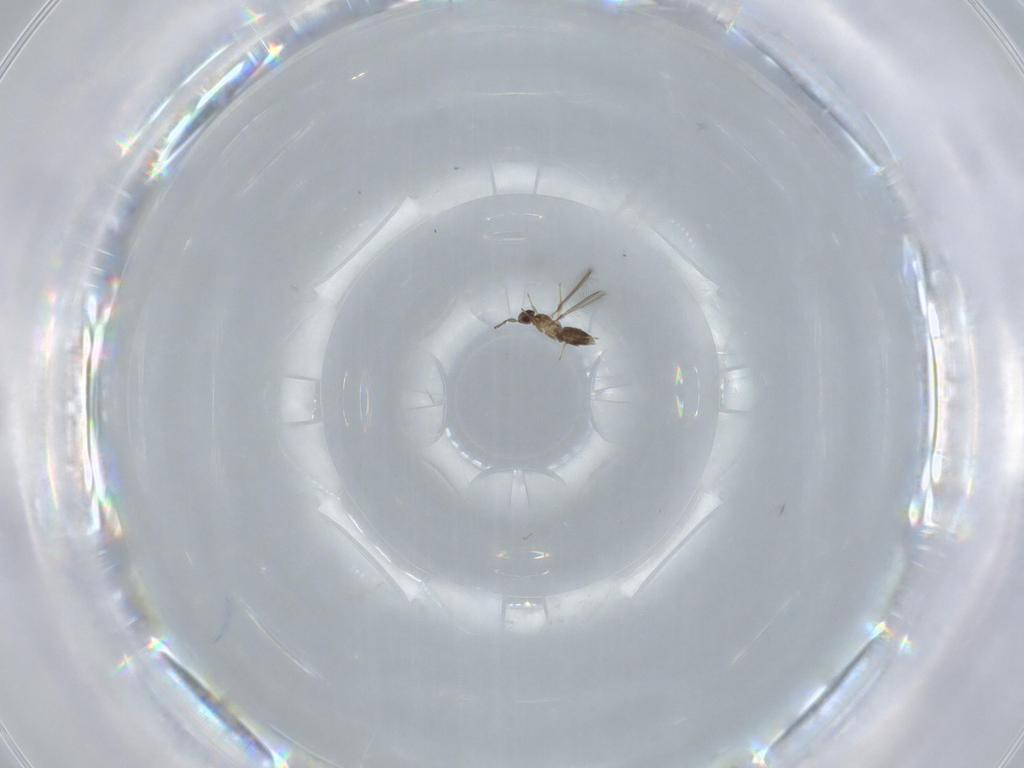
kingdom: Animalia
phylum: Arthropoda
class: Insecta
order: Hymenoptera
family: Mymaridae
